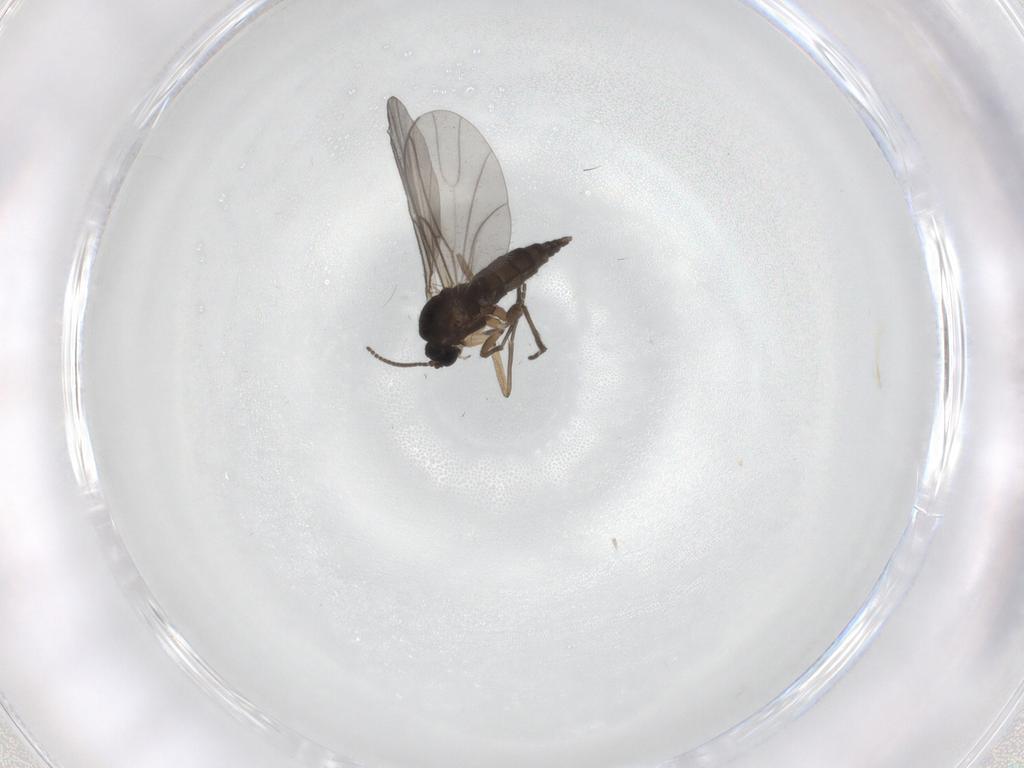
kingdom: Animalia
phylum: Arthropoda
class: Insecta
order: Diptera
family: Sciaridae
